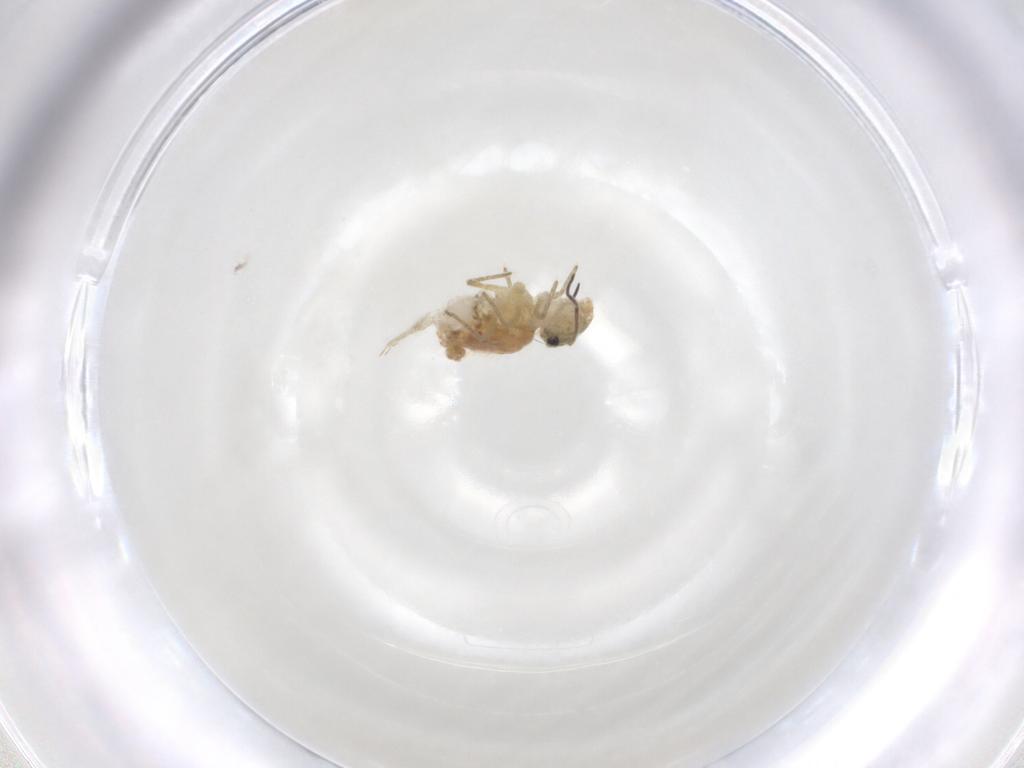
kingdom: Animalia
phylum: Arthropoda
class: Collembola
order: Symphypleona
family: Sminthuridae
